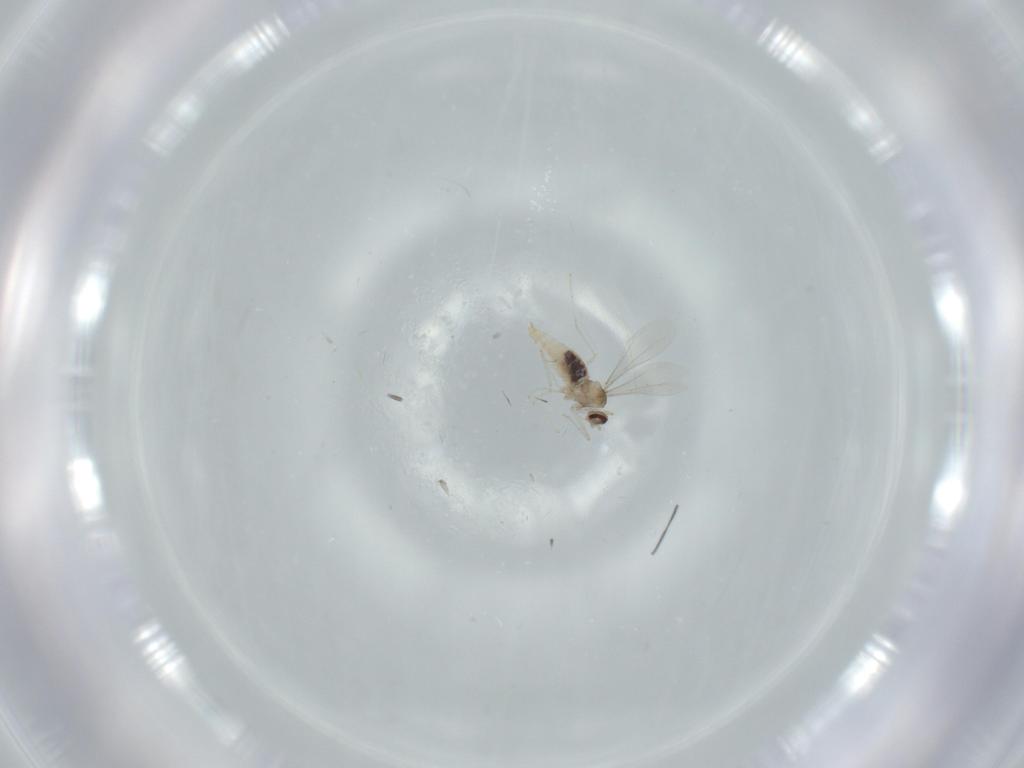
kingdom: Animalia
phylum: Arthropoda
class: Insecta
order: Diptera
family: Cecidomyiidae
